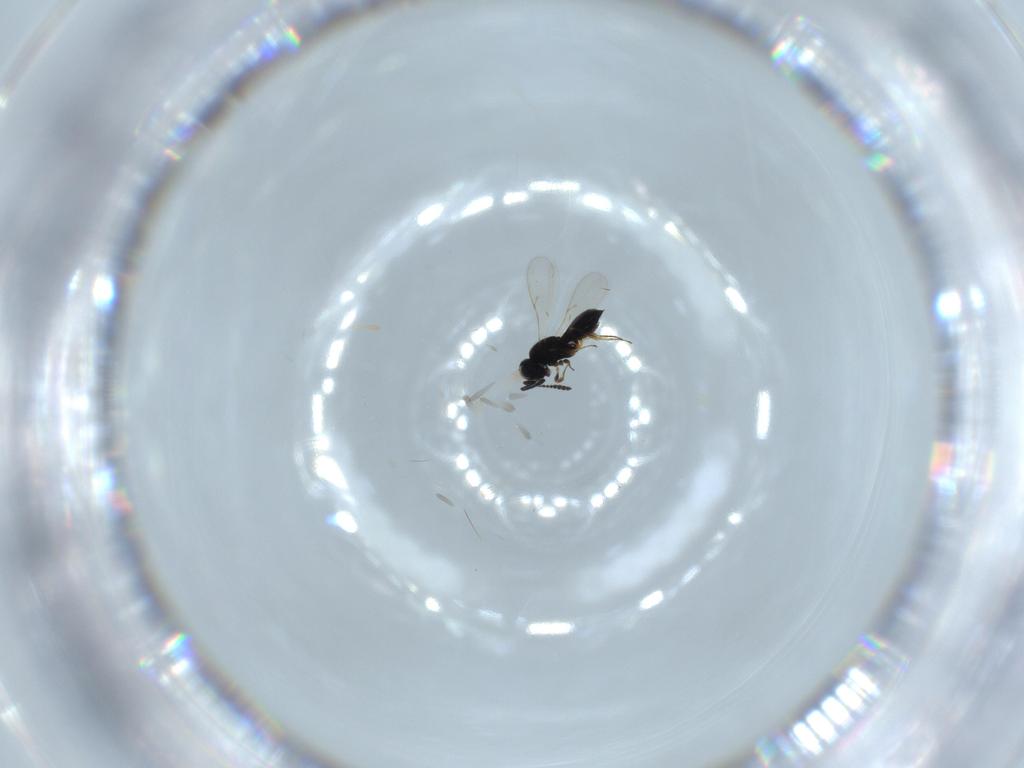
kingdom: Animalia
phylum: Arthropoda
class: Insecta
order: Hymenoptera
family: Scelionidae
